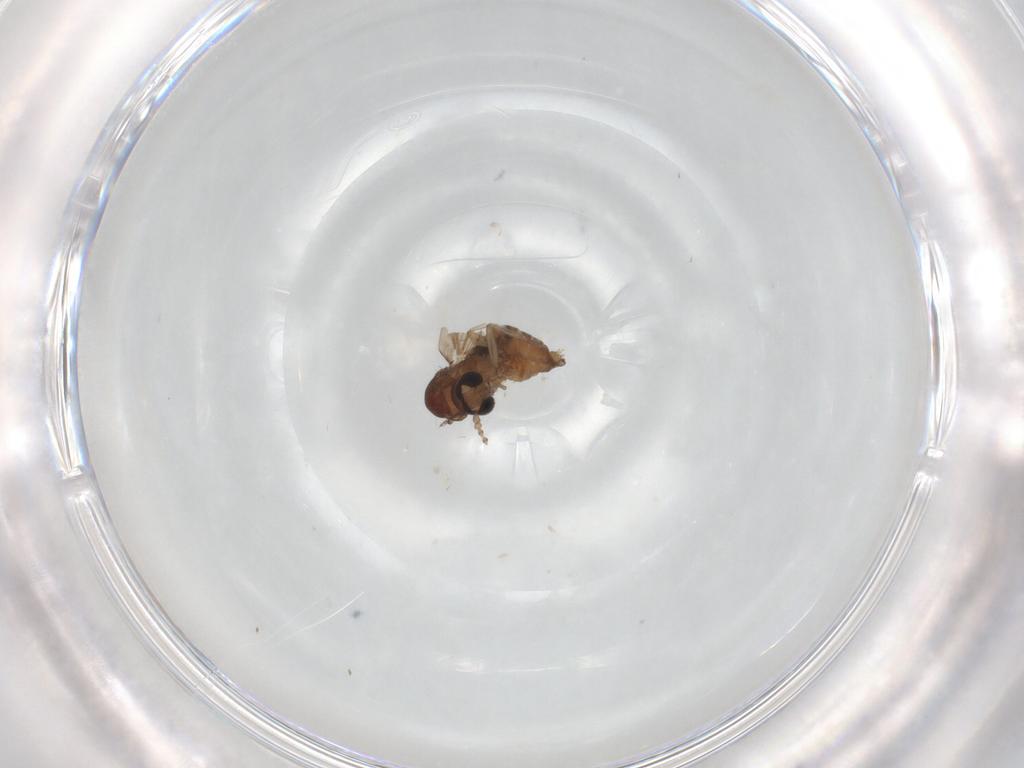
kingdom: Animalia
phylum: Arthropoda
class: Insecta
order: Diptera
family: Psychodidae
